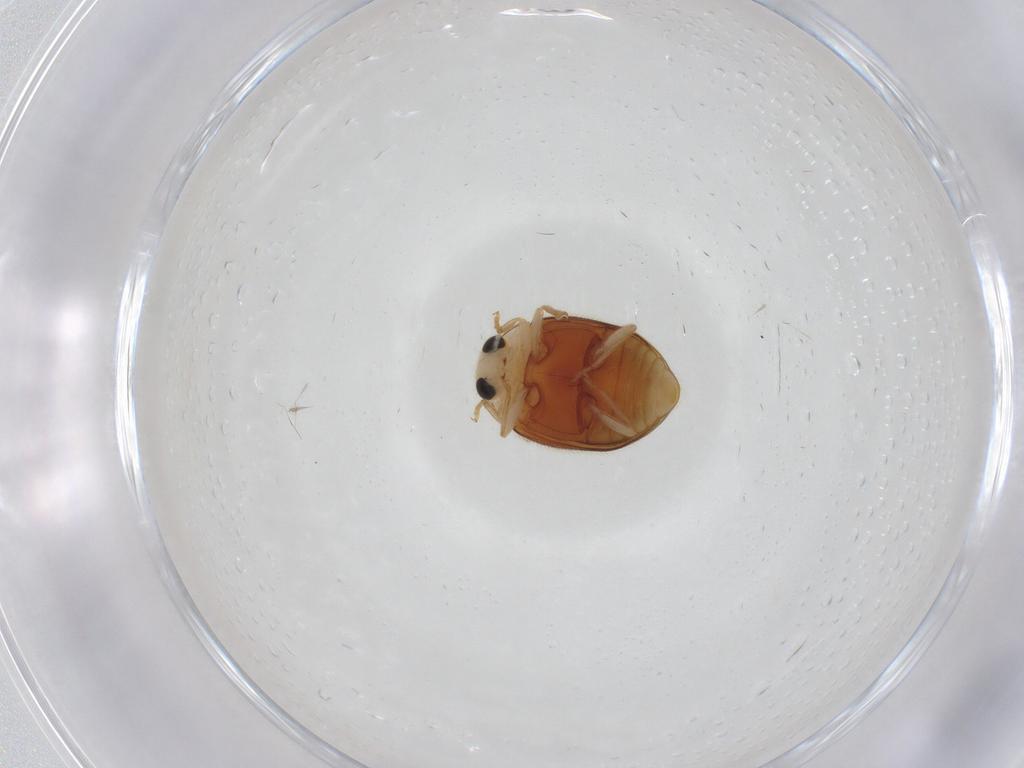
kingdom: Animalia
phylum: Arthropoda
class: Insecta
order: Coleoptera
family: Coccinellidae
